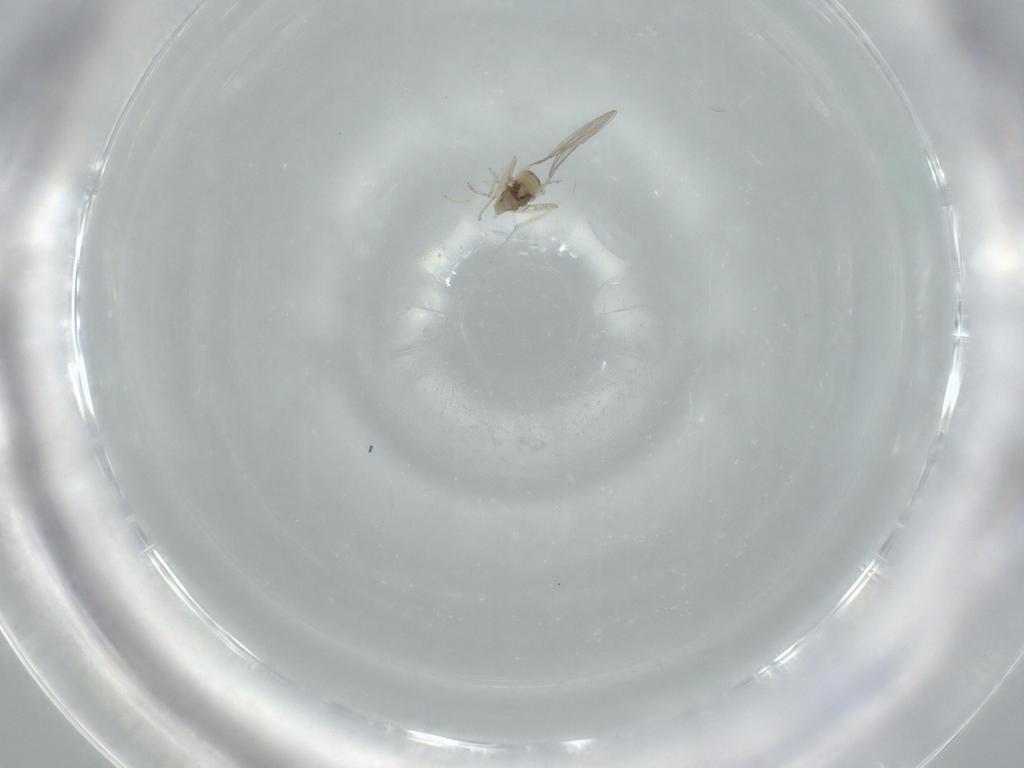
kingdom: Animalia
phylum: Arthropoda
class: Insecta
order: Diptera
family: Cecidomyiidae
